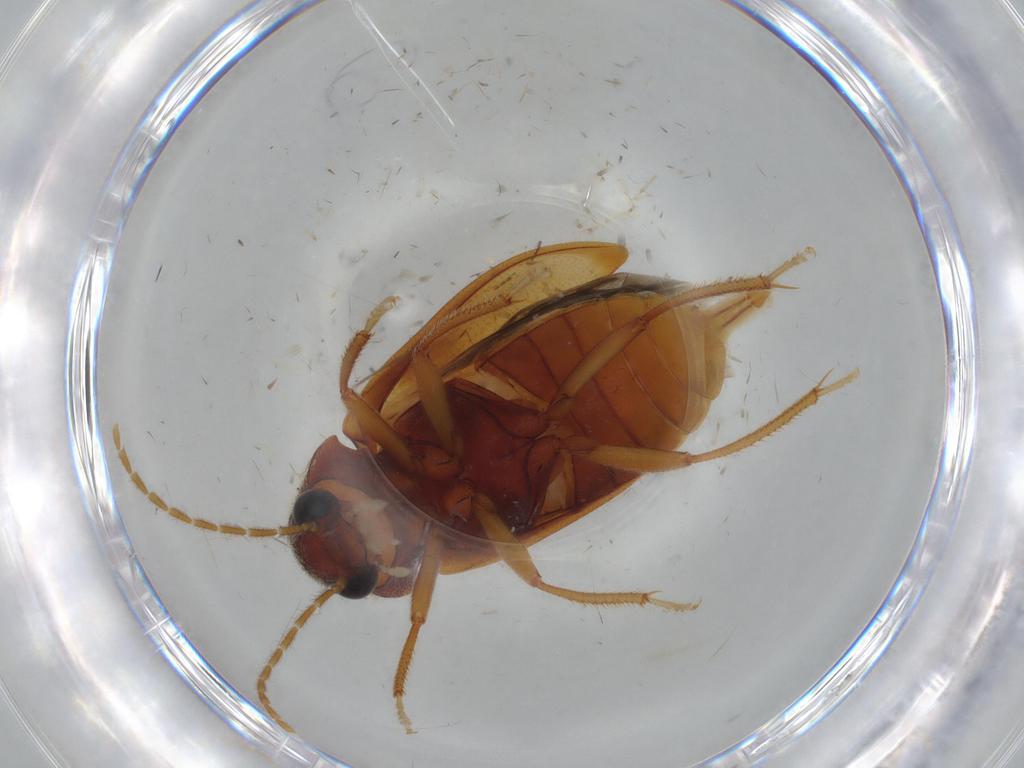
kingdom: Animalia
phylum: Arthropoda
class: Insecta
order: Coleoptera
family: Ptilodactylidae
